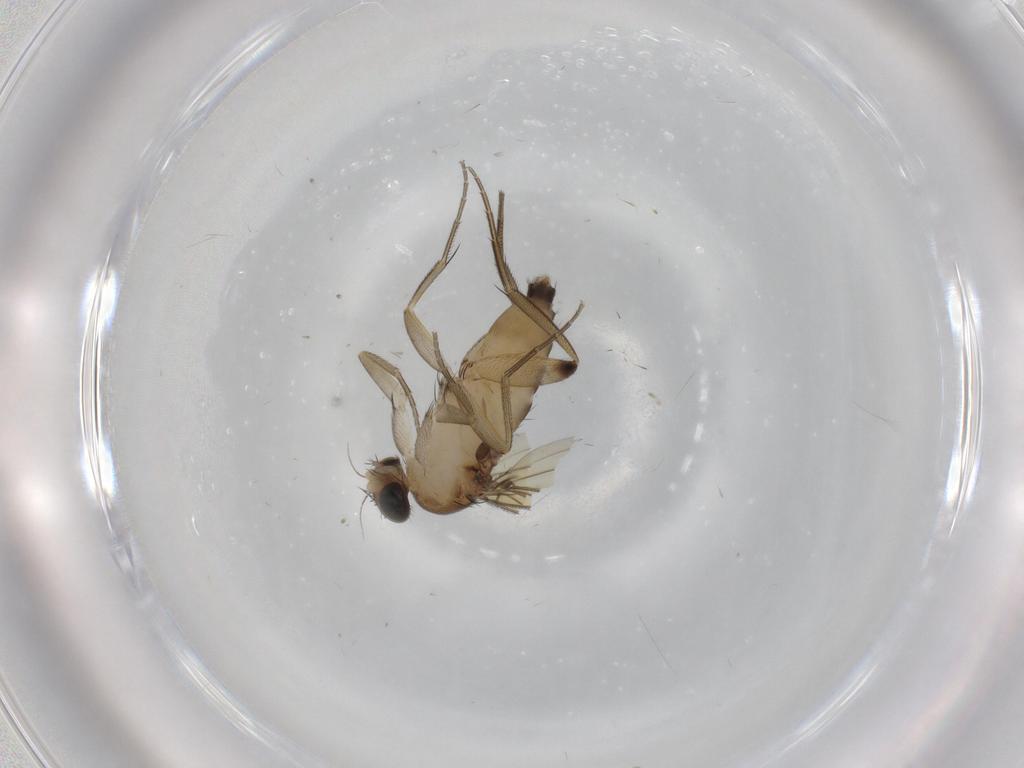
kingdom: Animalia
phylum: Arthropoda
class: Insecta
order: Diptera
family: Phoridae
